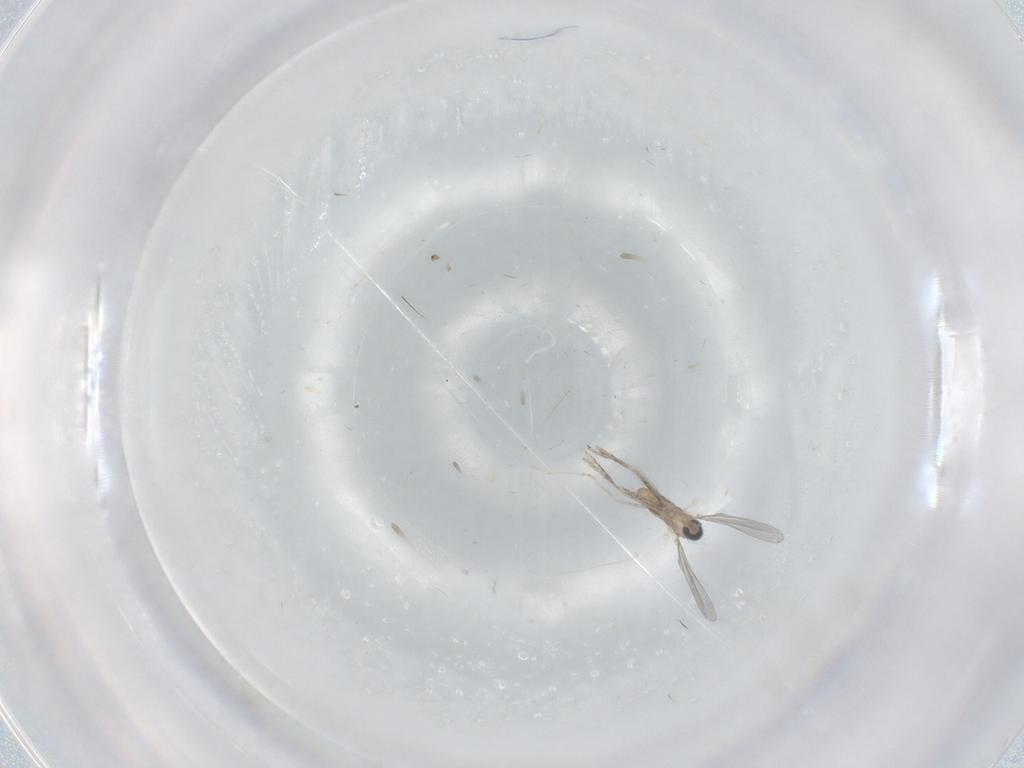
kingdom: Animalia
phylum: Arthropoda
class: Insecta
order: Diptera
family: Cecidomyiidae
